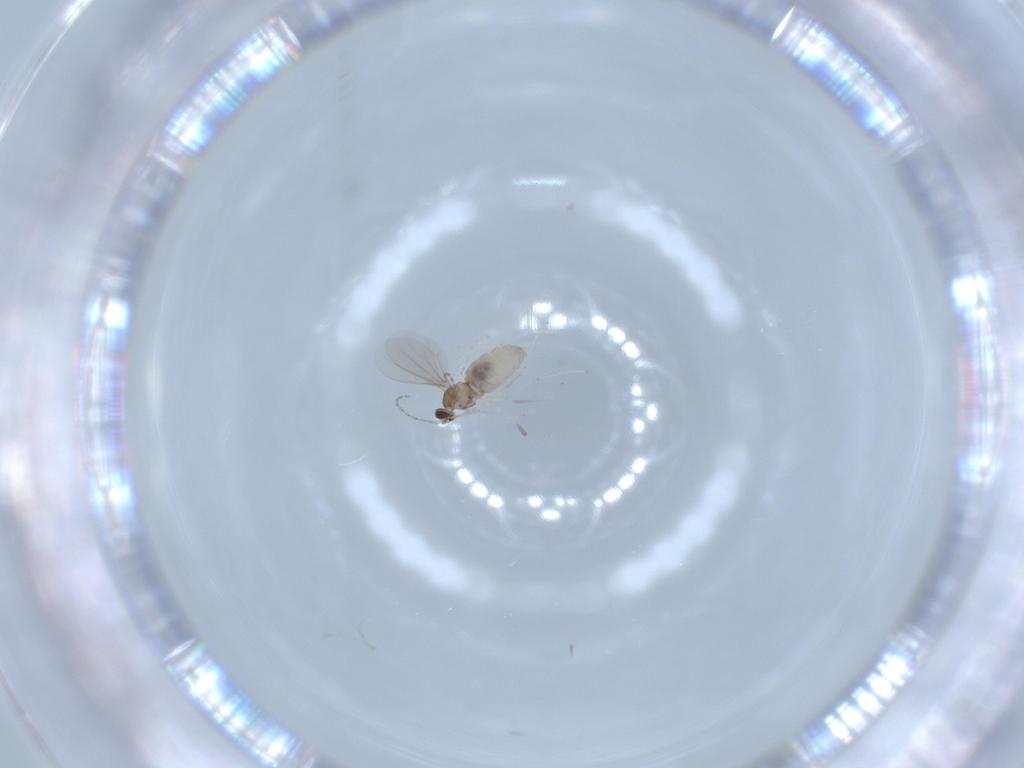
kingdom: Animalia
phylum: Arthropoda
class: Insecta
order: Diptera
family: Cecidomyiidae
